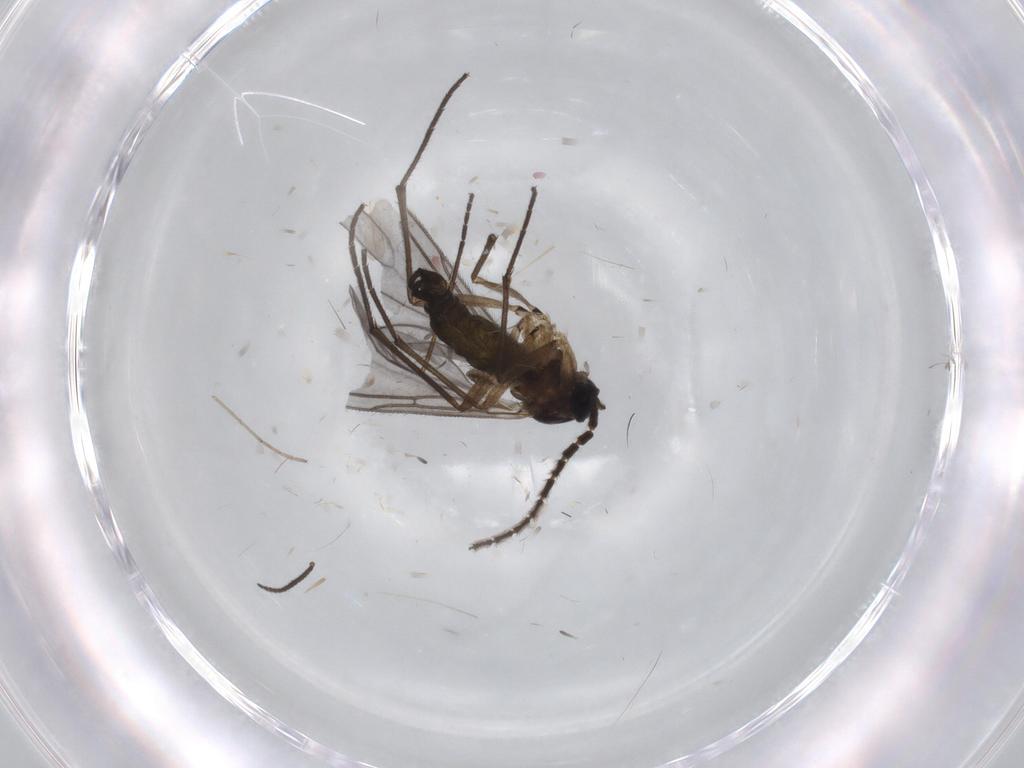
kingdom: Animalia
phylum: Arthropoda
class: Insecta
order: Diptera
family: Sciaridae
